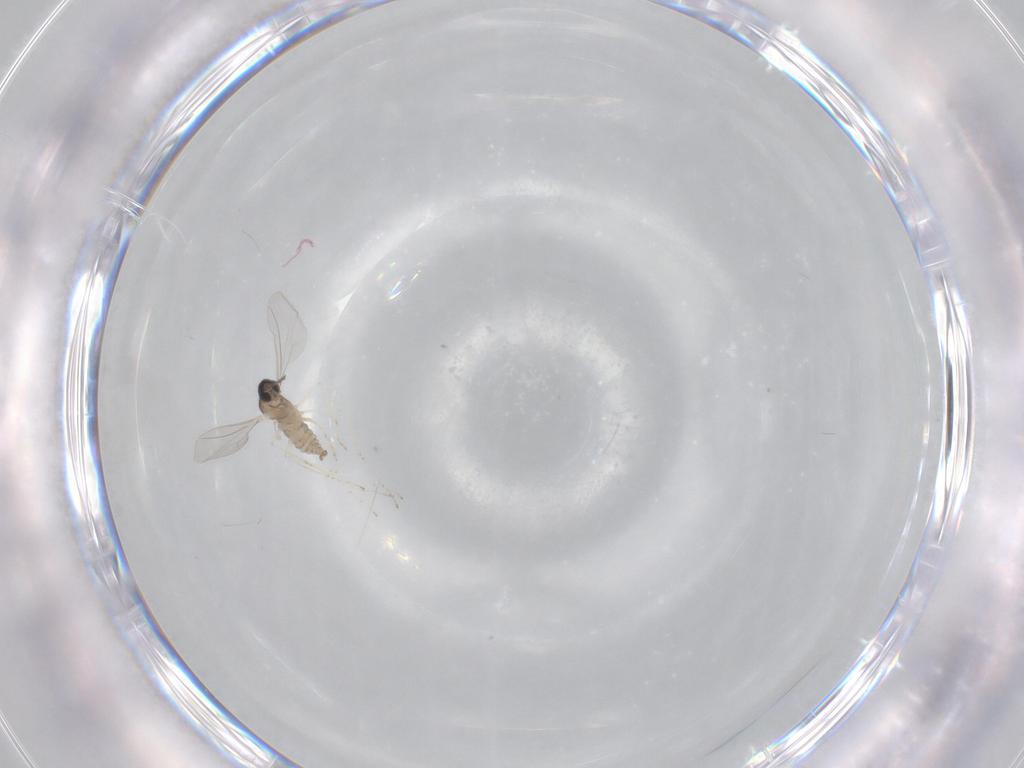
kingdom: Animalia
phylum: Arthropoda
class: Insecta
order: Diptera
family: Cecidomyiidae
